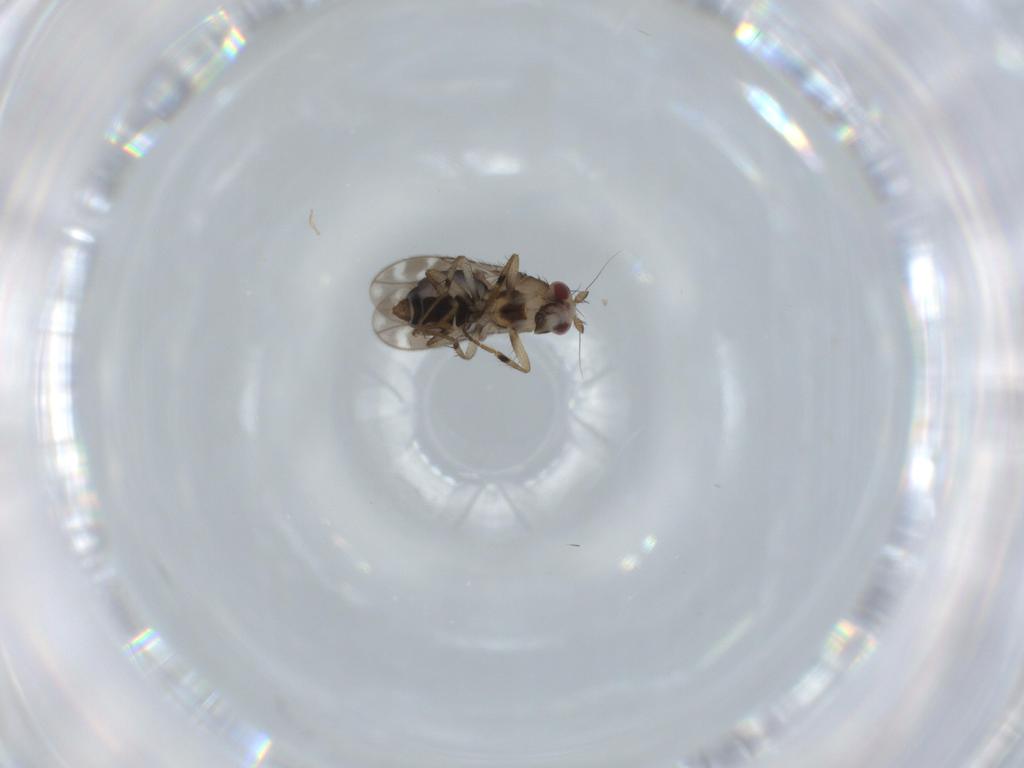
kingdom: Animalia
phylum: Arthropoda
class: Insecta
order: Diptera
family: Sphaeroceridae
